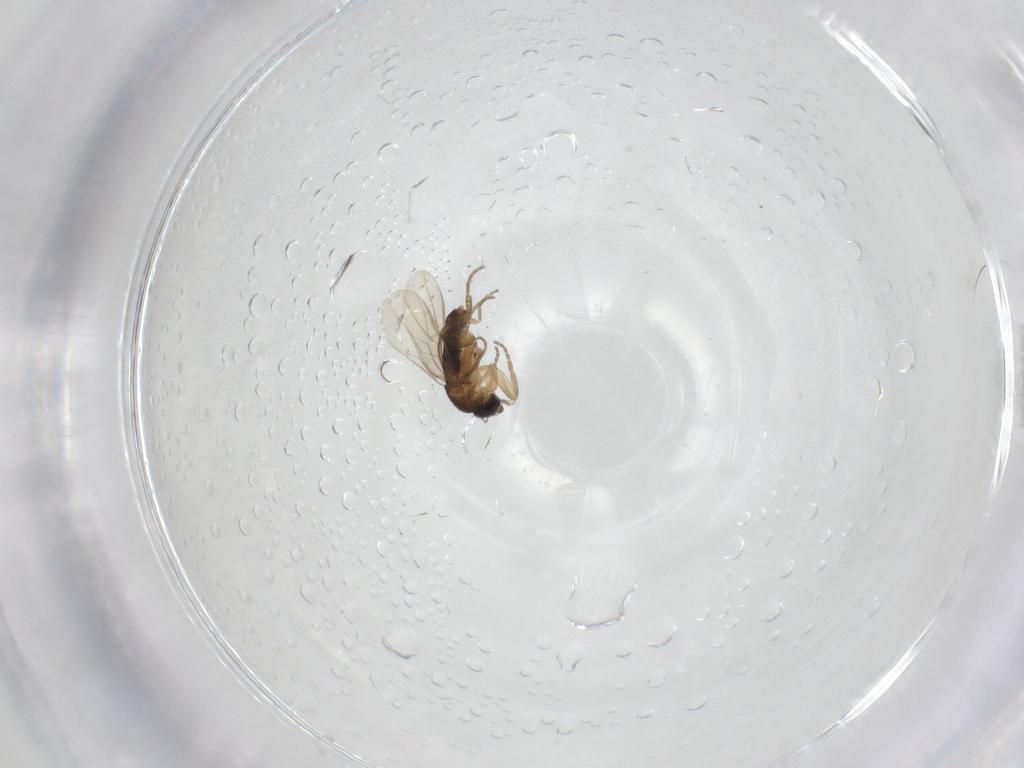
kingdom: Animalia
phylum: Arthropoda
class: Insecta
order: Diptera
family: Phoridae
